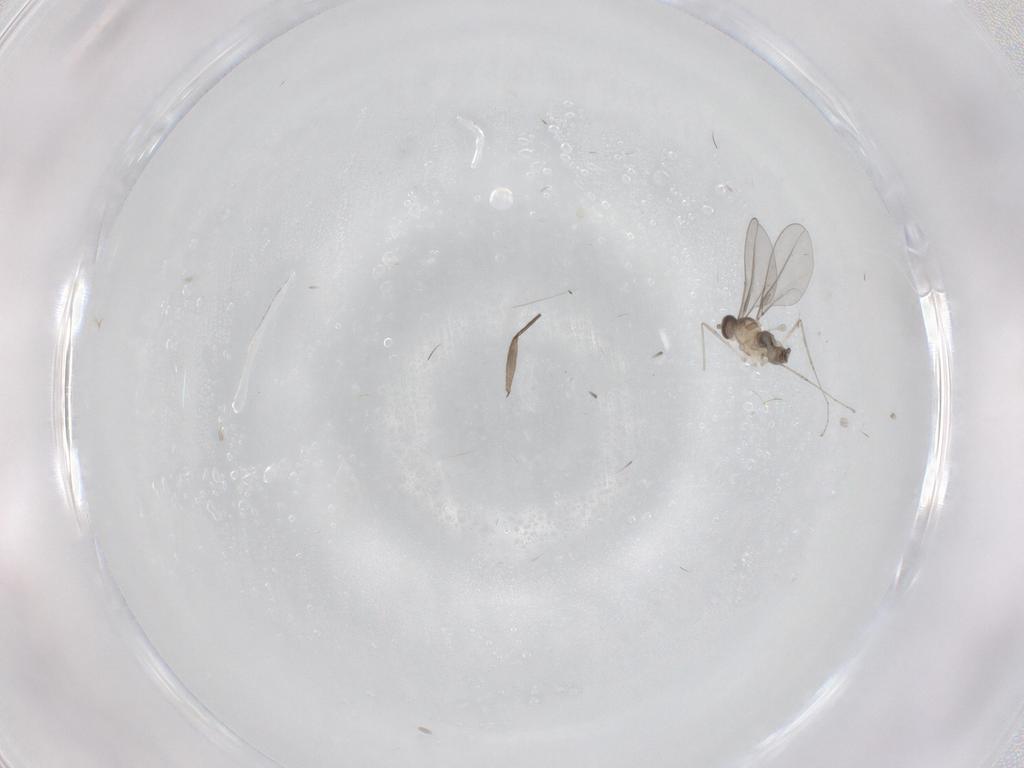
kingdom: Animalia
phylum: Arthropoda
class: Insecta
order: Diptera
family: Cecidomyiidae
